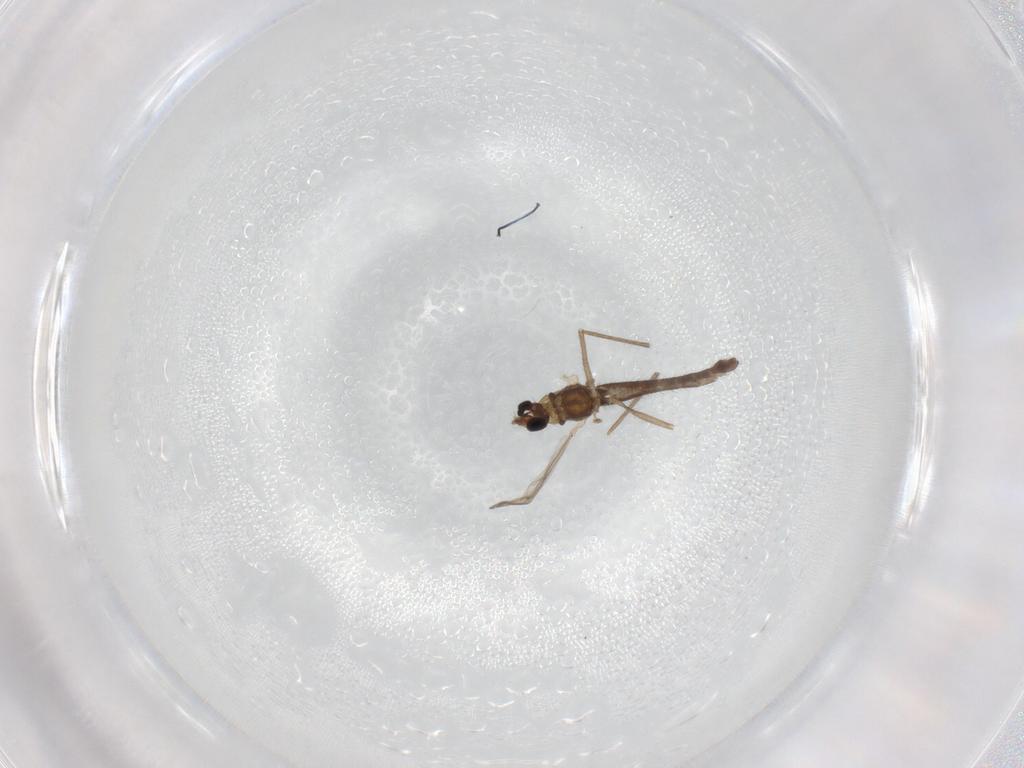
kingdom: Animalia
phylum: Arthropoda
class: Insecta
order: Diptera
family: Chironomidae
